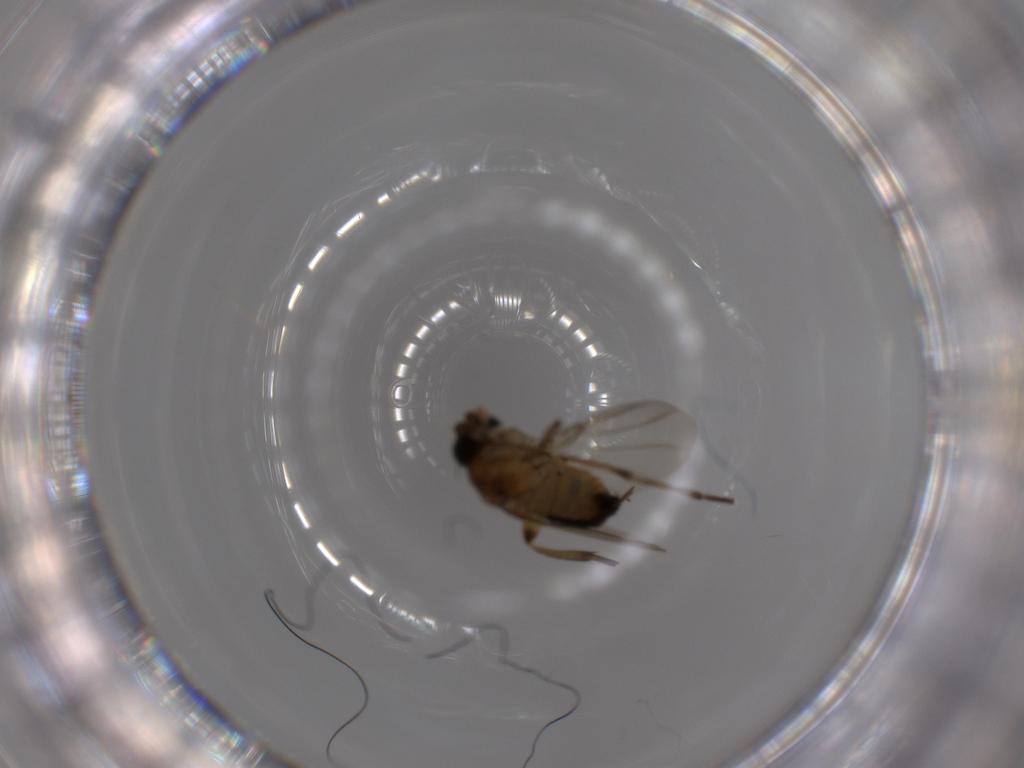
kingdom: Animalia
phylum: Arthropoda
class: Insecta
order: Diptera
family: Phoridae
